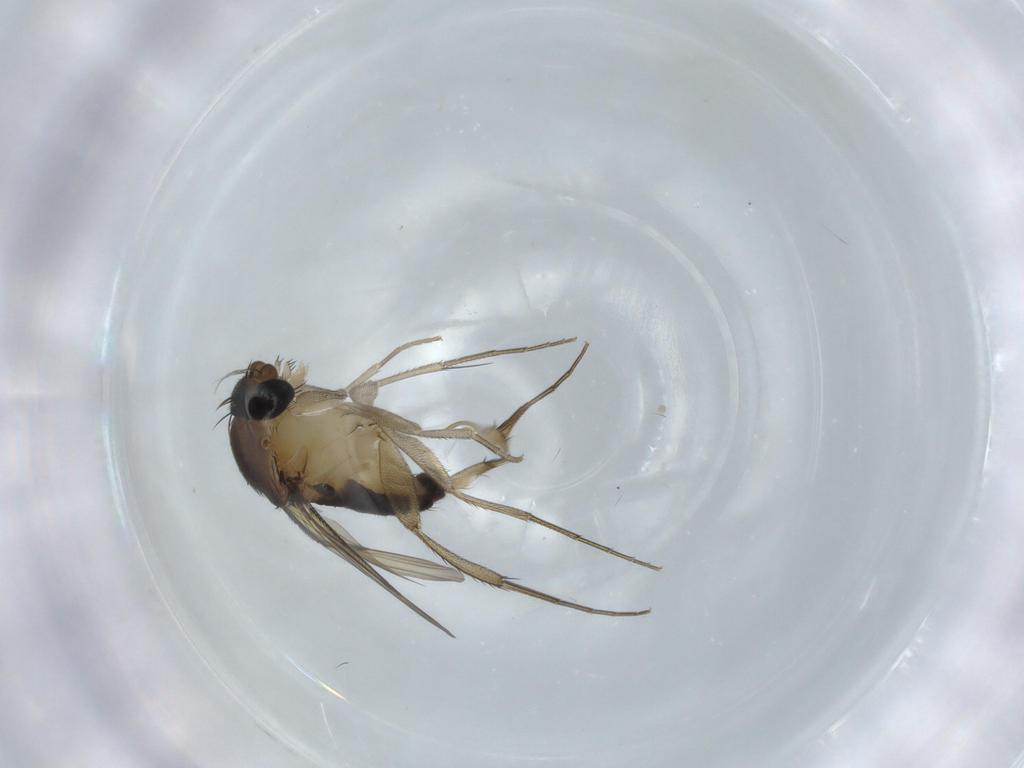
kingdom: Animalia
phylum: Arthropoda
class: Insecta
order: Diptera
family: Phoridae
